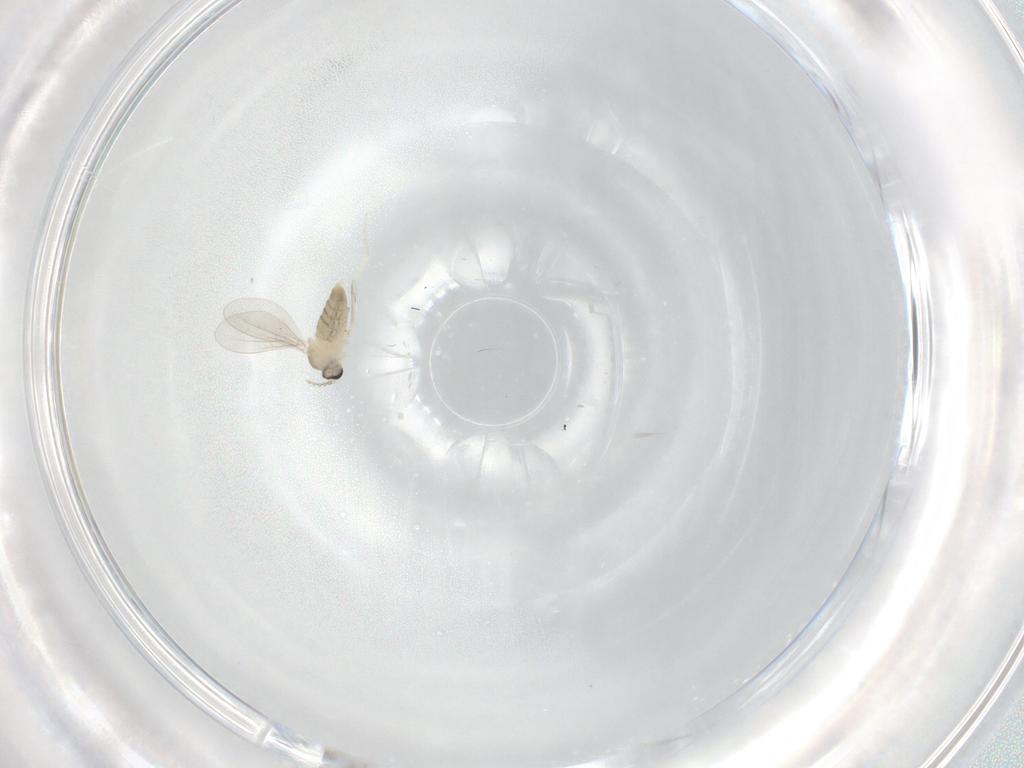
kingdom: Animalia
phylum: Arthropoda
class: Insecta
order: Diptera
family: Cecidomyiidae
